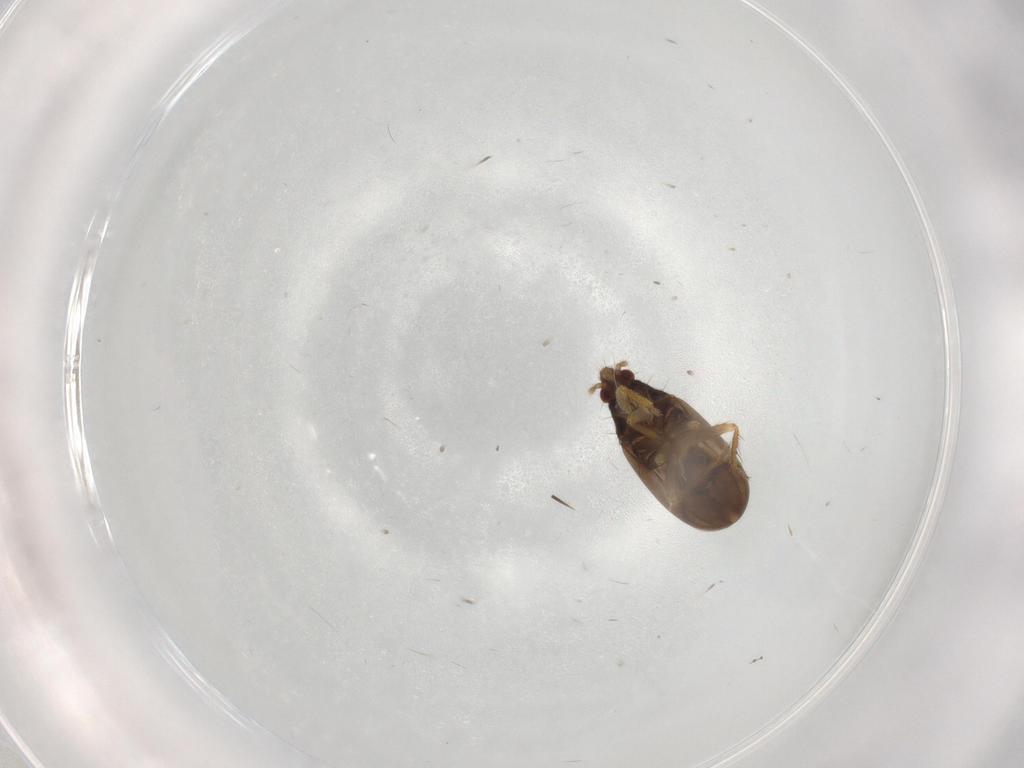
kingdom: Animalia
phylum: Arthropoda
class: Insecta
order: Hemiptera
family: Ceratocombidae
